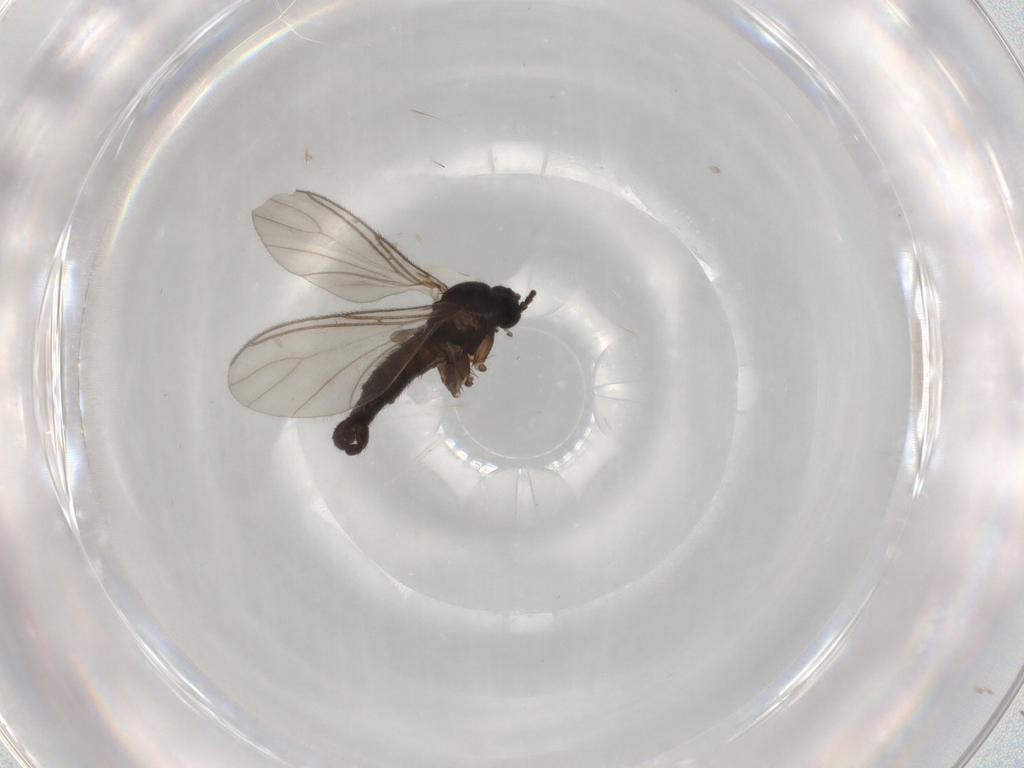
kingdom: Animalia
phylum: Arthropoda
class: Insecta
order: Diptera
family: Sciaridae
